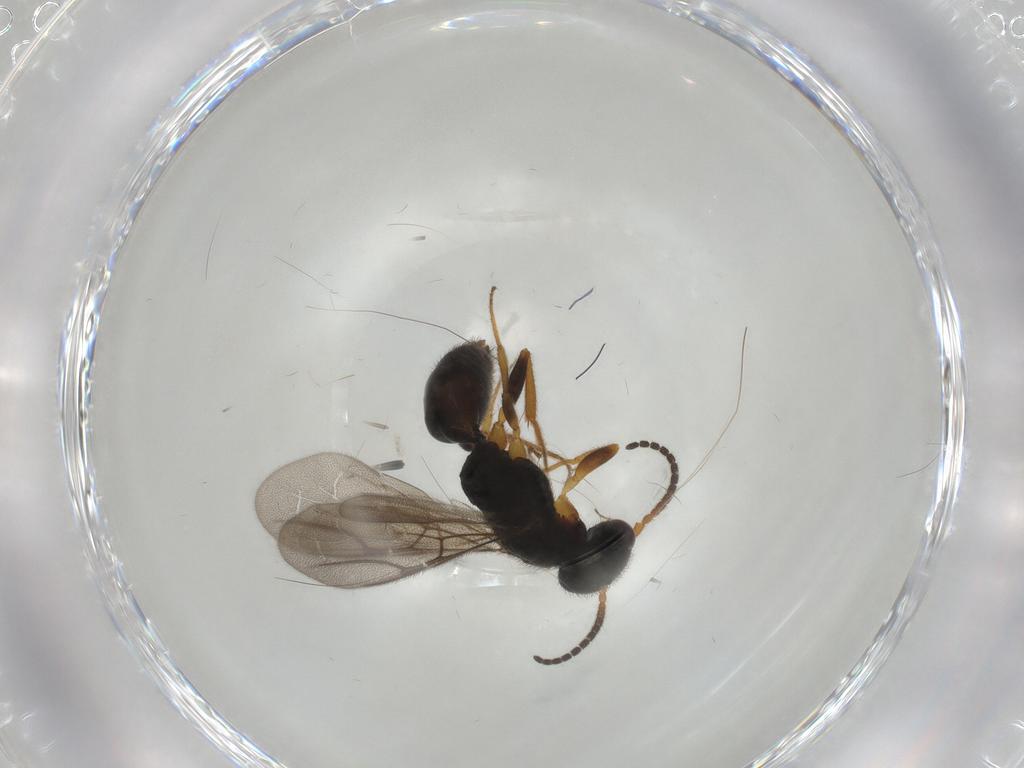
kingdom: Animalia
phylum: Arthropoda
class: Insecta
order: Hymenoptera
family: Bethylidae
